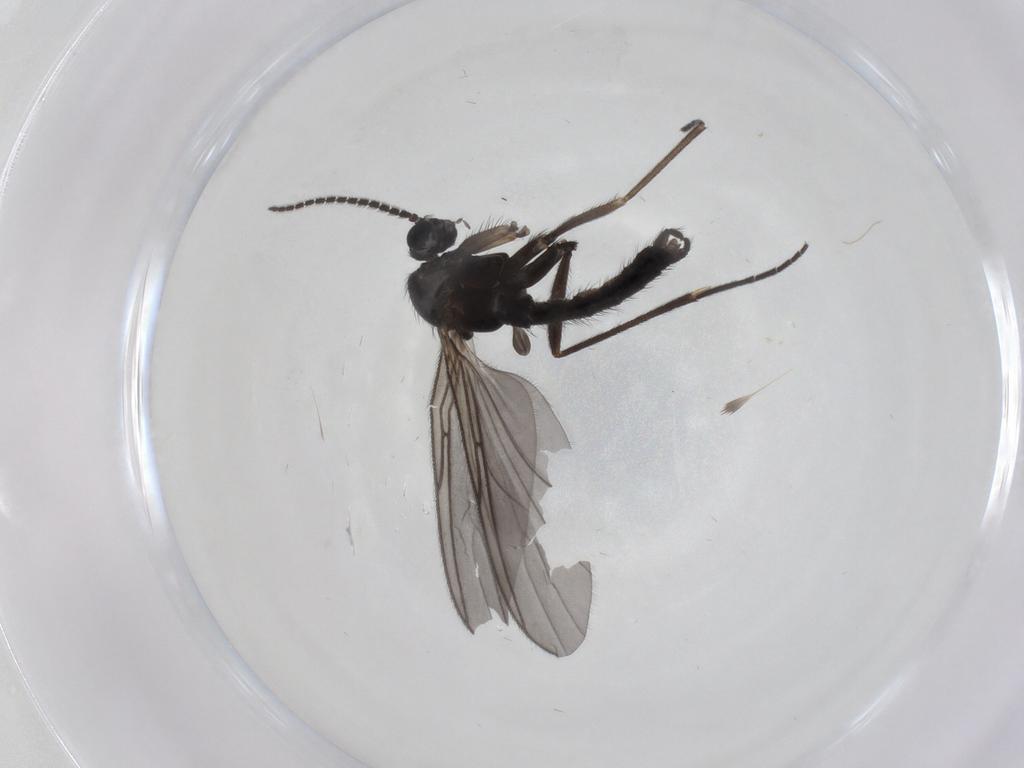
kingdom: Animalia
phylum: Arthropoda
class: Insecta
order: Diptera
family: Sciaridae
